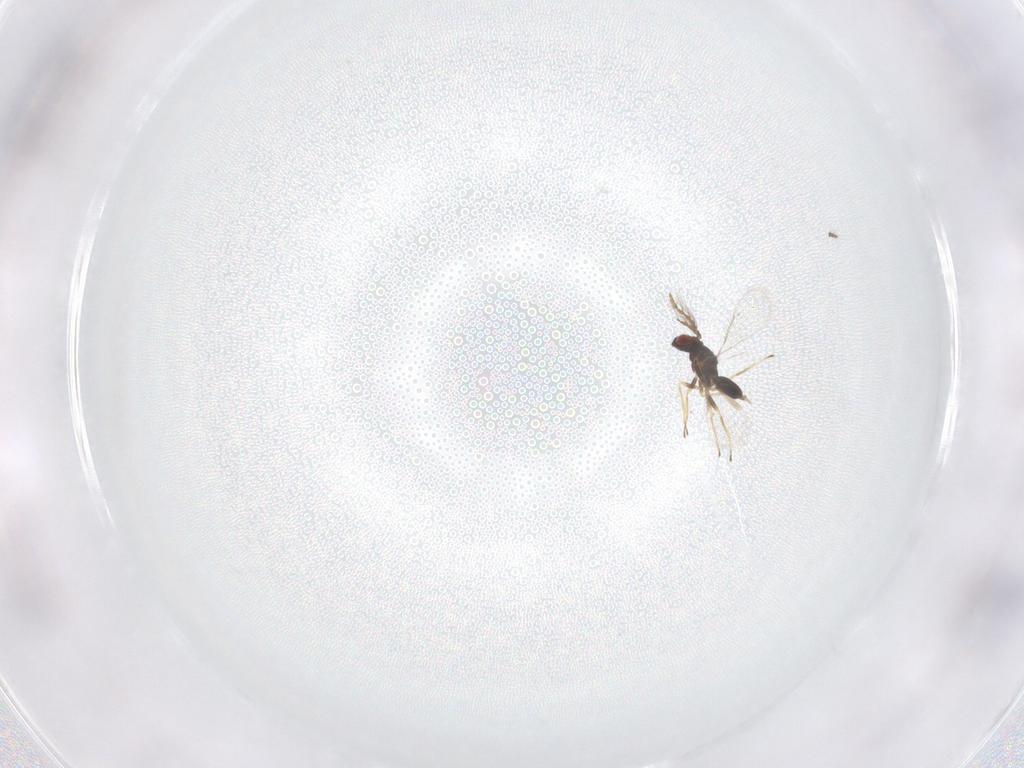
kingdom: Animalia
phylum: Arthropoda
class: Insecta
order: Hymenoptera
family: Eulophidae
